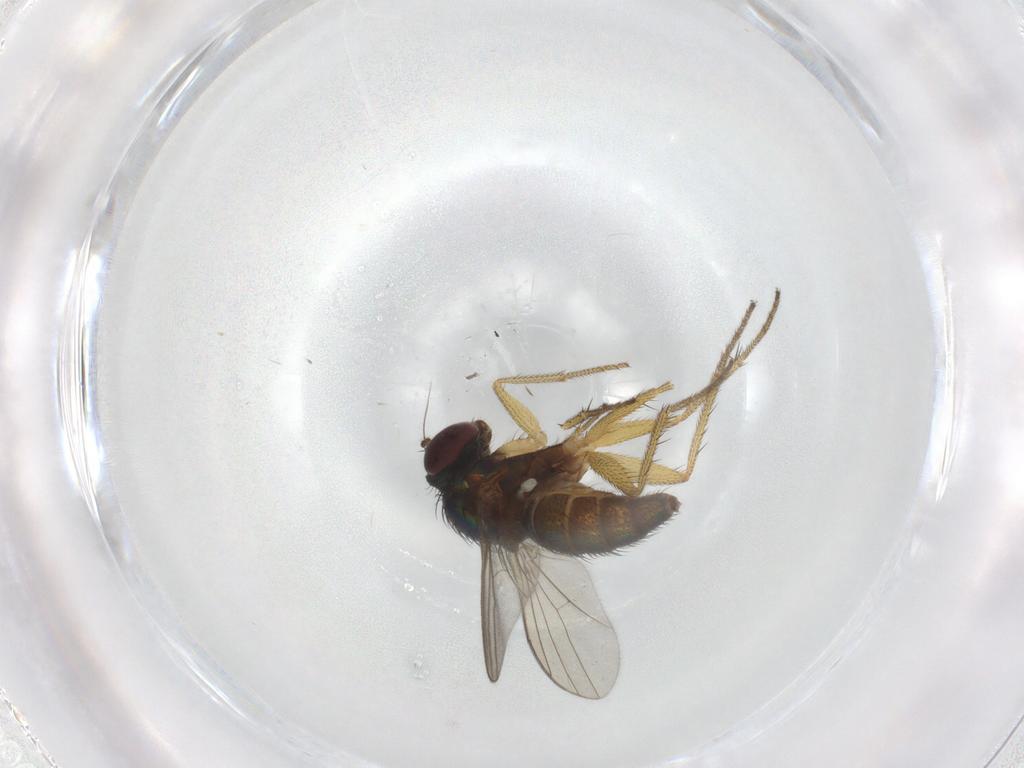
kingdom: Animalia
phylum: Arthropoda
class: Insecta
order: Diptera
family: Dolichopodidae
